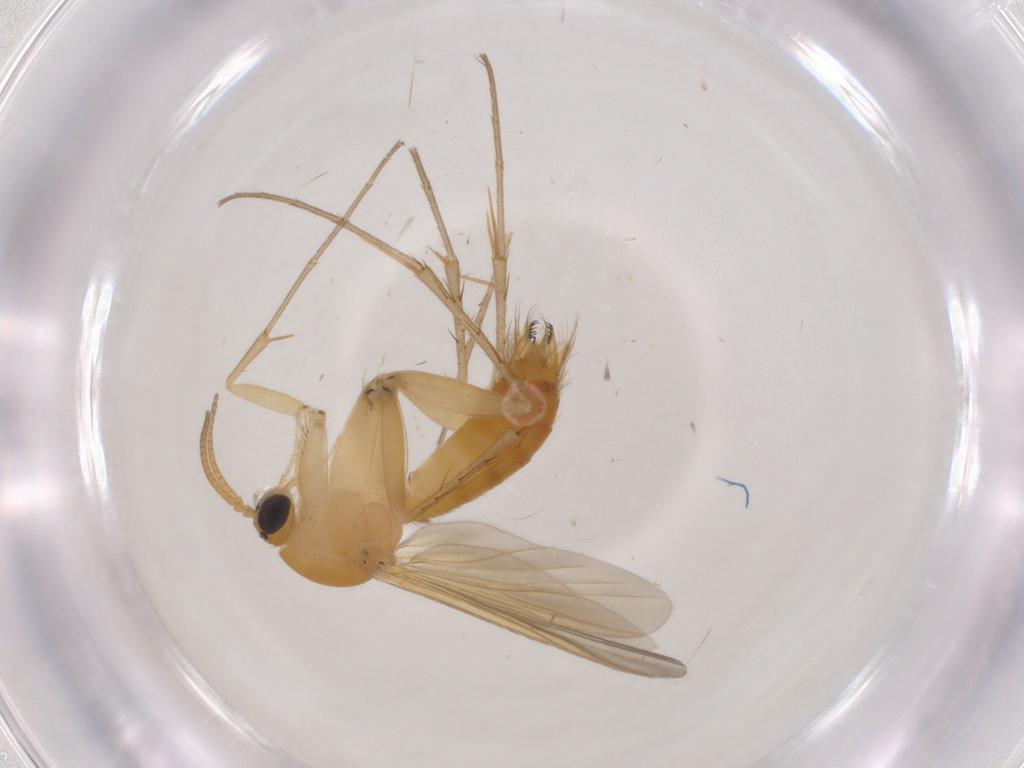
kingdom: Animalia
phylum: Arthropoda
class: Insecta
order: Diptera
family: Mycetophilidae
